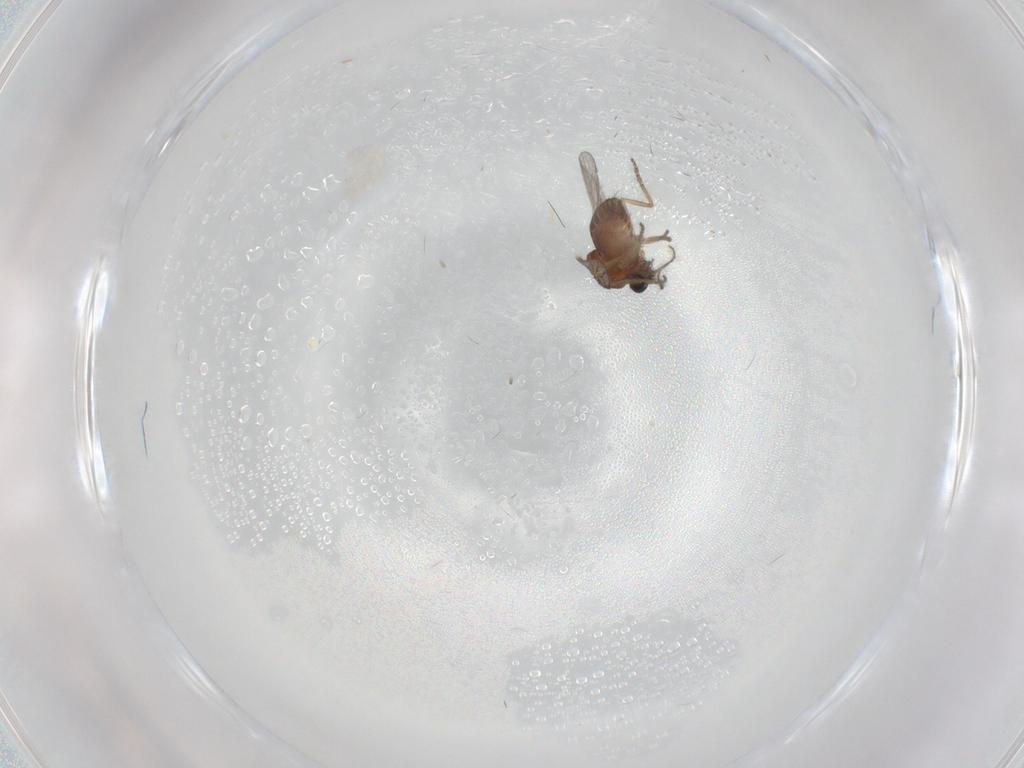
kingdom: Animalia
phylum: Arthropoda
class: Insecta
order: Diptera
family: Ceratopogonidae
